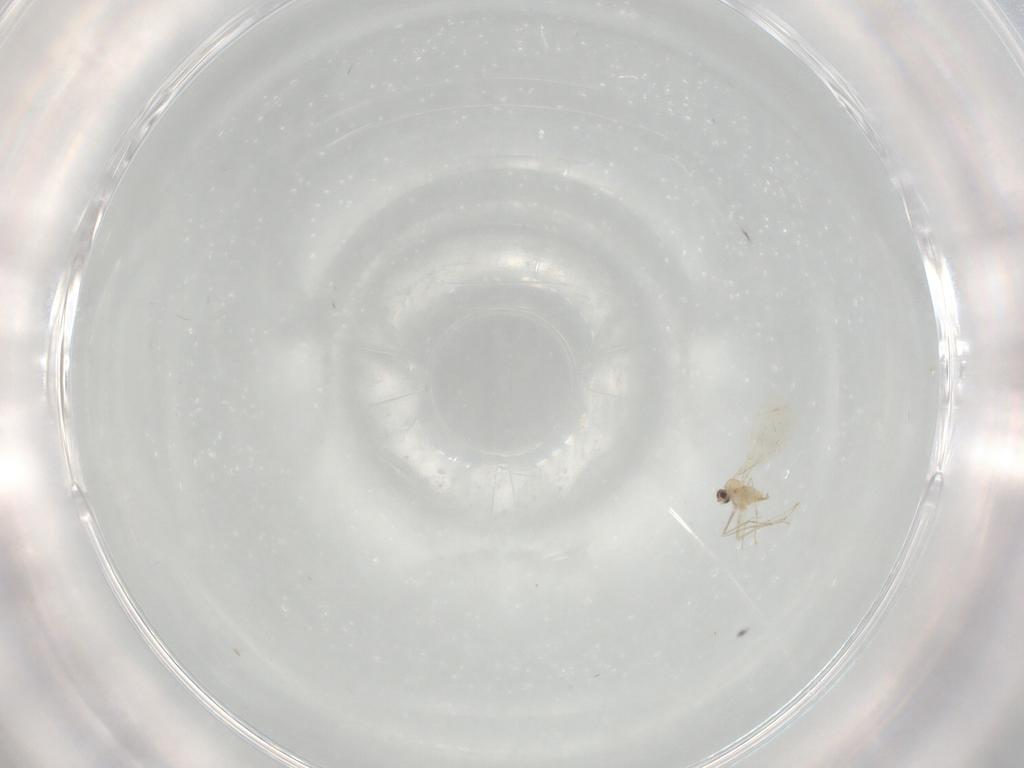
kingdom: Animalia
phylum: Arthropoda
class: Insecta
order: Diptera
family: Cecidomyiidae
